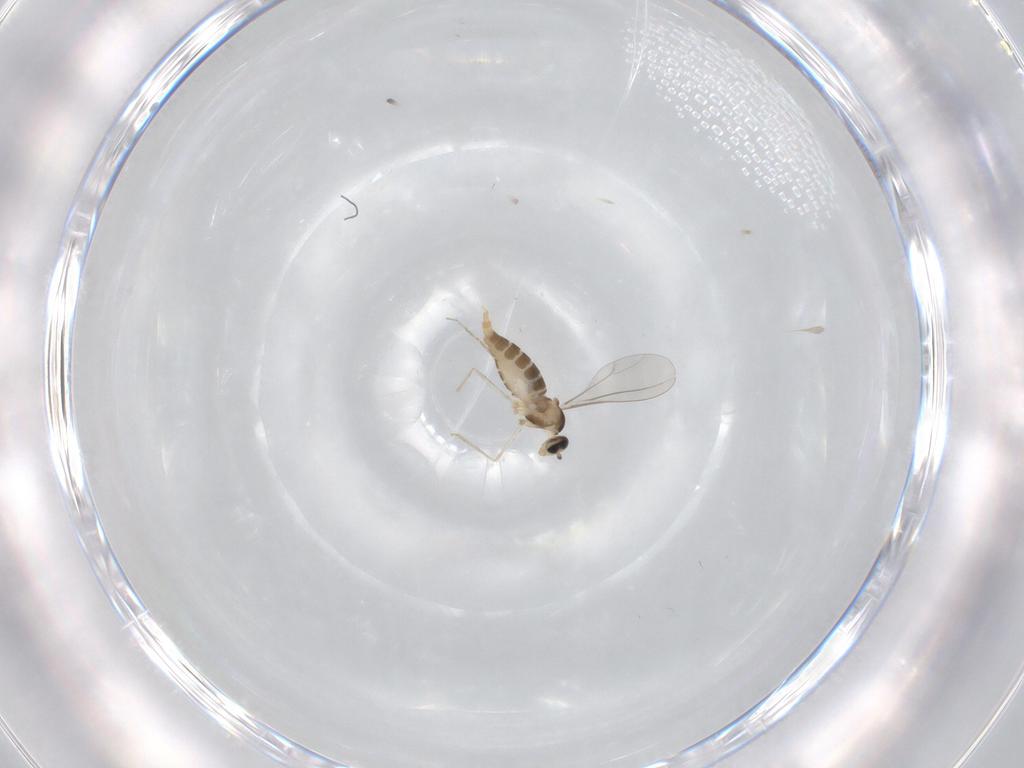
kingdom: Animalia
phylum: Arthropoda
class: Insecta
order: Diptera
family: Cecidomyiidae
